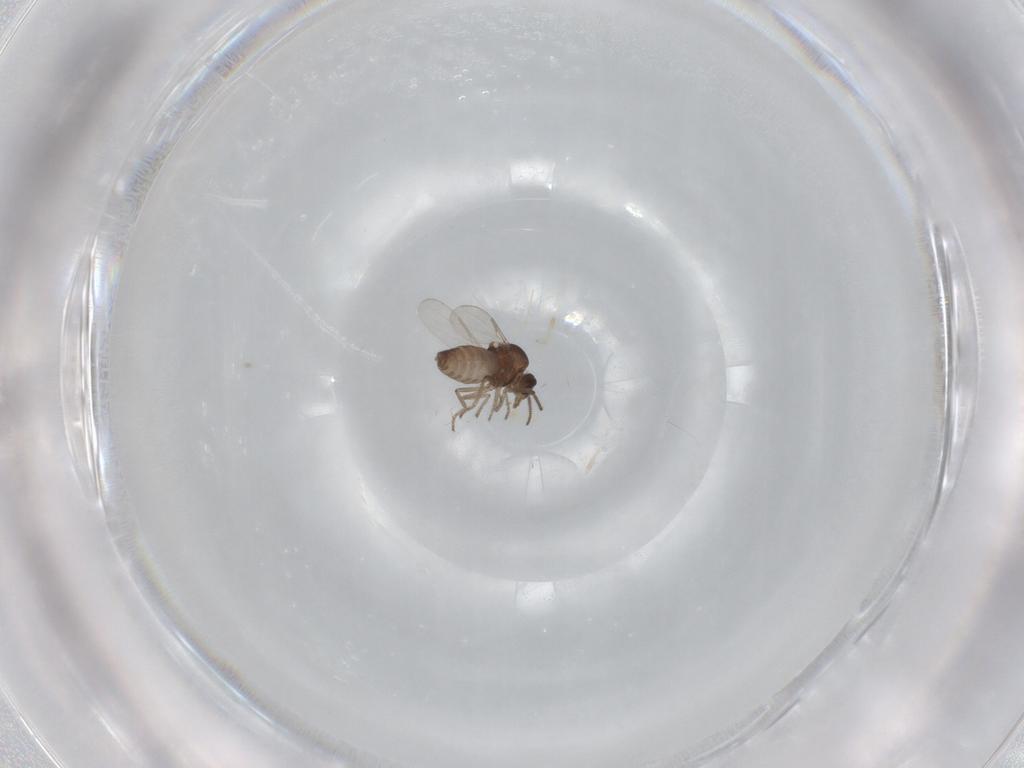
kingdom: Animalia
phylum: Arthropoda
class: Insecta
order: Diptera
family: Ceratopogonidae
